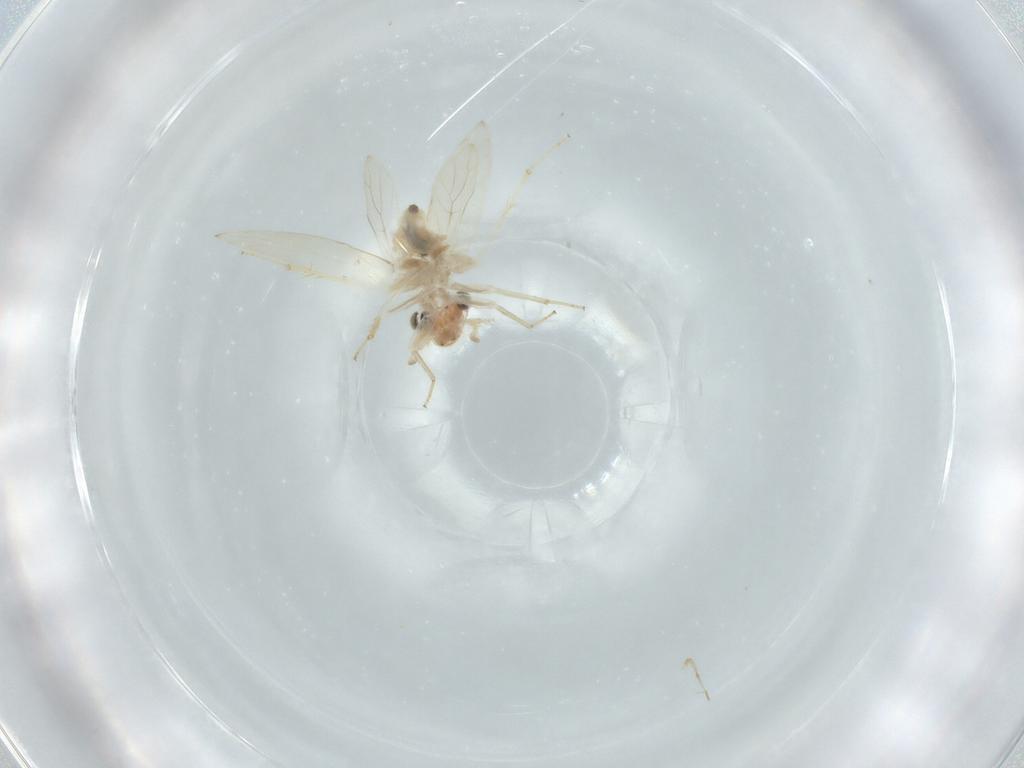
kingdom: Animalia
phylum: Arthropoda
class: Insecta
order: Psocodea
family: Lepidopsocidae
